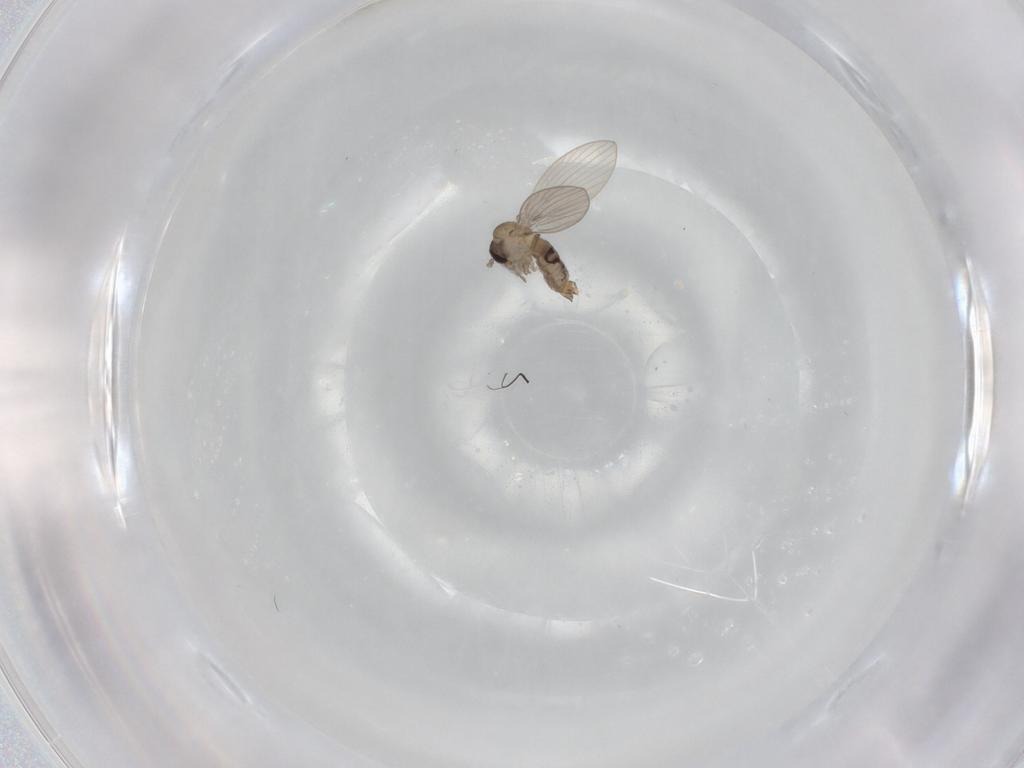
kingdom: Animalia
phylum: Arthropoda
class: Insecta
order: Diptera
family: Psychodidae
